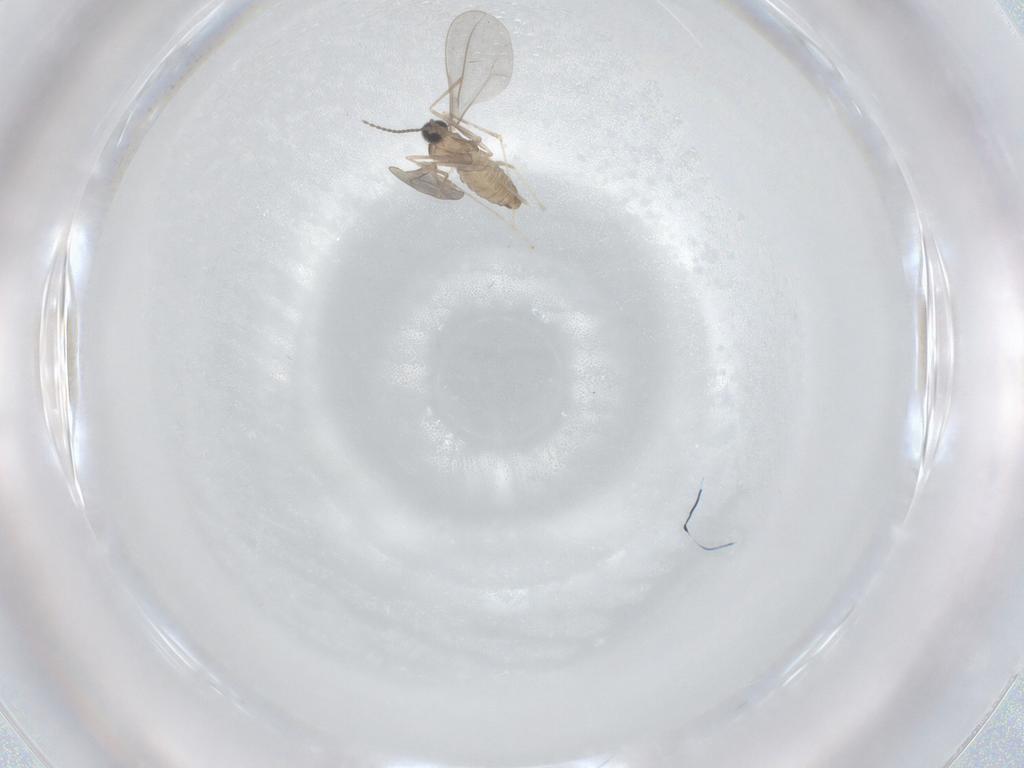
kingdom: Animalia
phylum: Arthropoda
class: Insecta
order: Diptera
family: Cecidomyiidae
